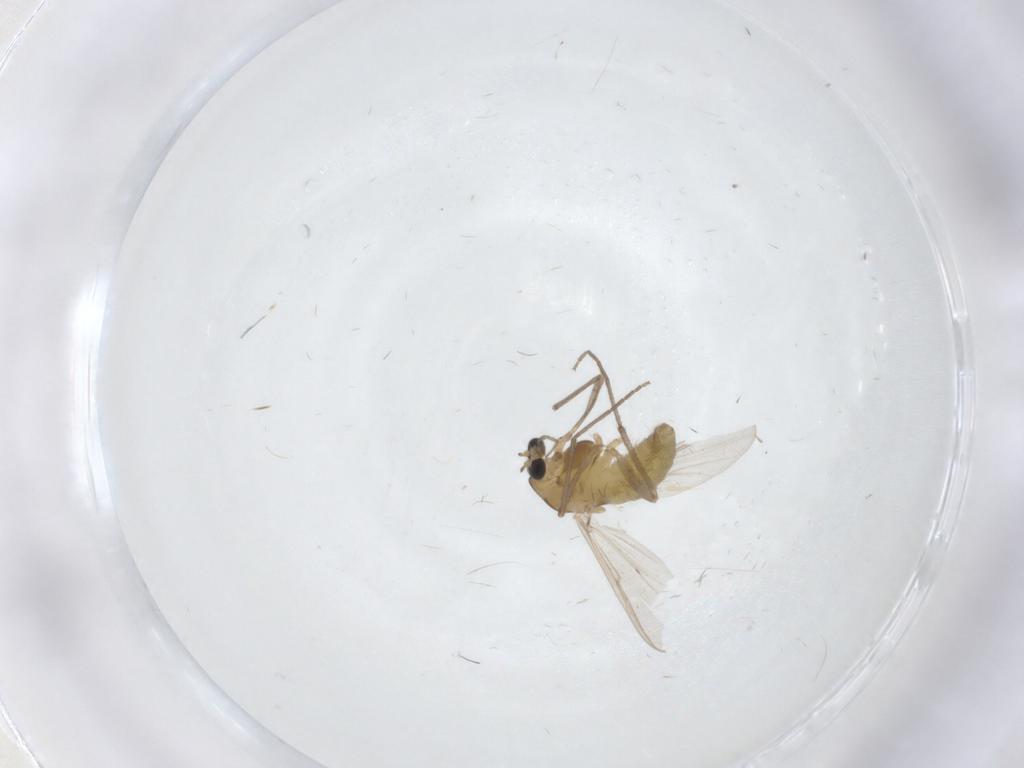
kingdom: Animalia
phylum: Arthropoda
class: Insecta
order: Diptera
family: Chironomidae
